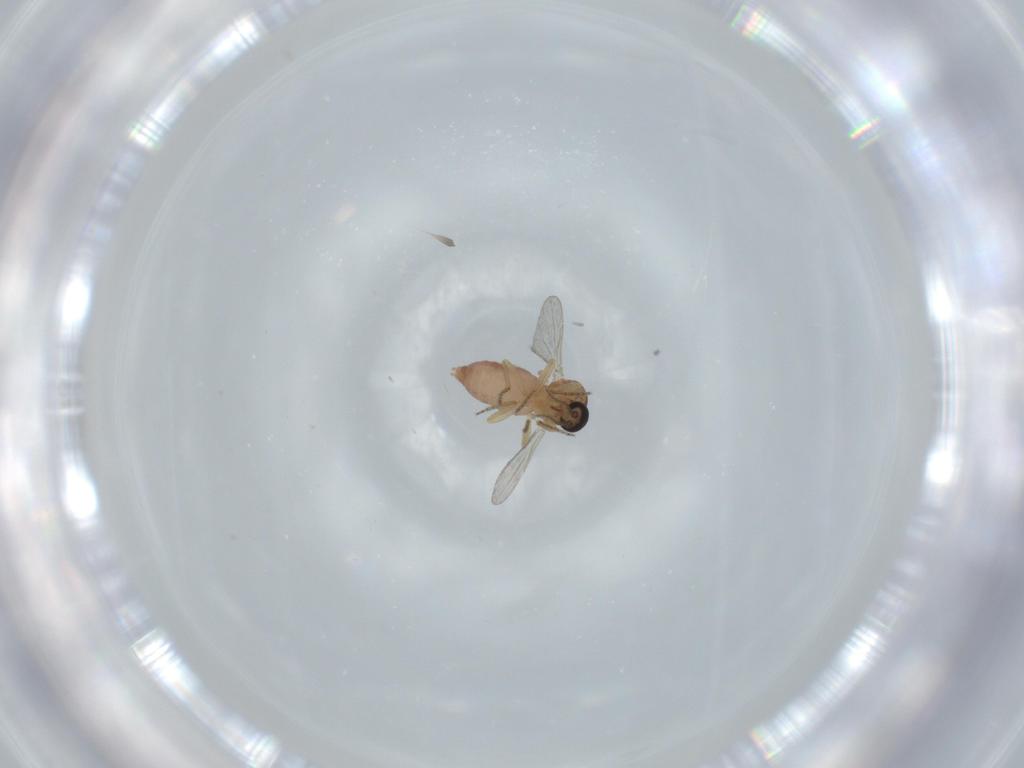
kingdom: Animalia
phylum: Arthropoda
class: Insecta
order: Diptera
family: Ceratopogonidae
